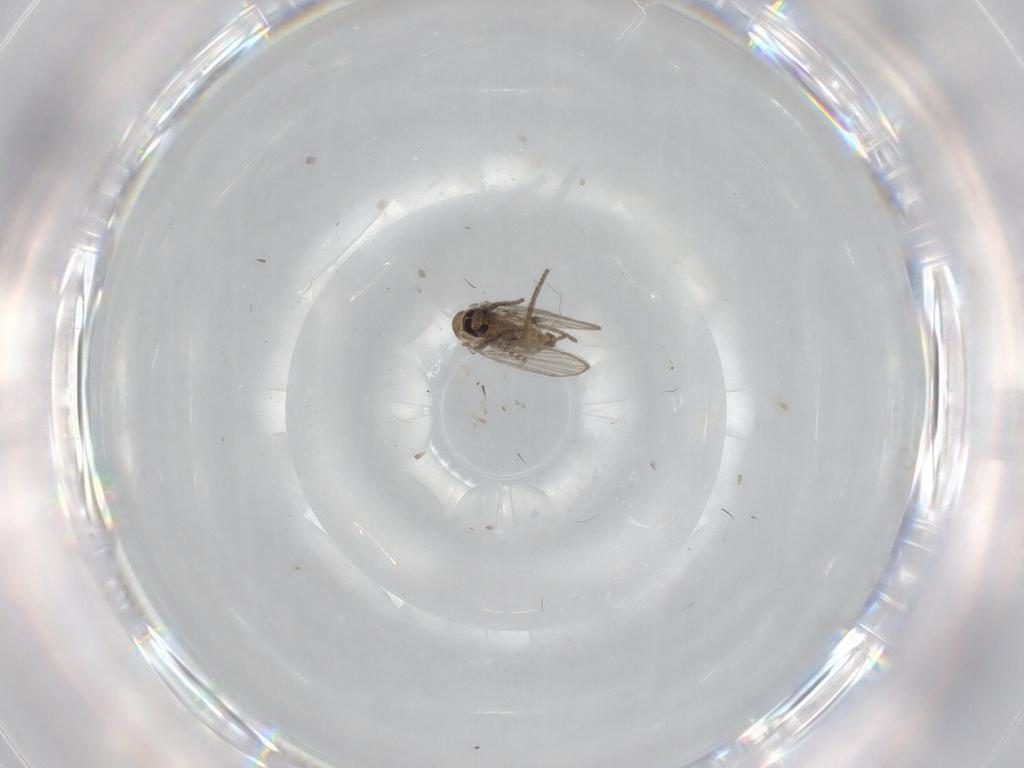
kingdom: Animalia
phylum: Arthropoda
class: Insecta
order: Diptera
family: Psychodidae
